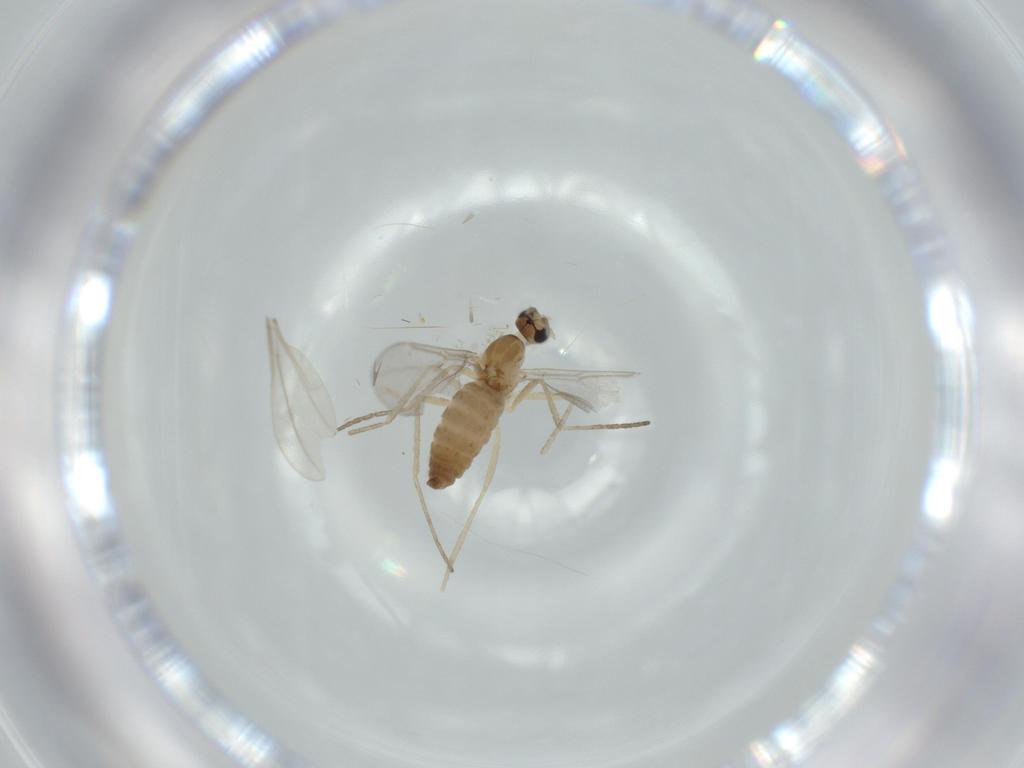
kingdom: Animalia
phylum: Arthropoda
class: Insecta
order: Diptera
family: Cecidomyiidae
